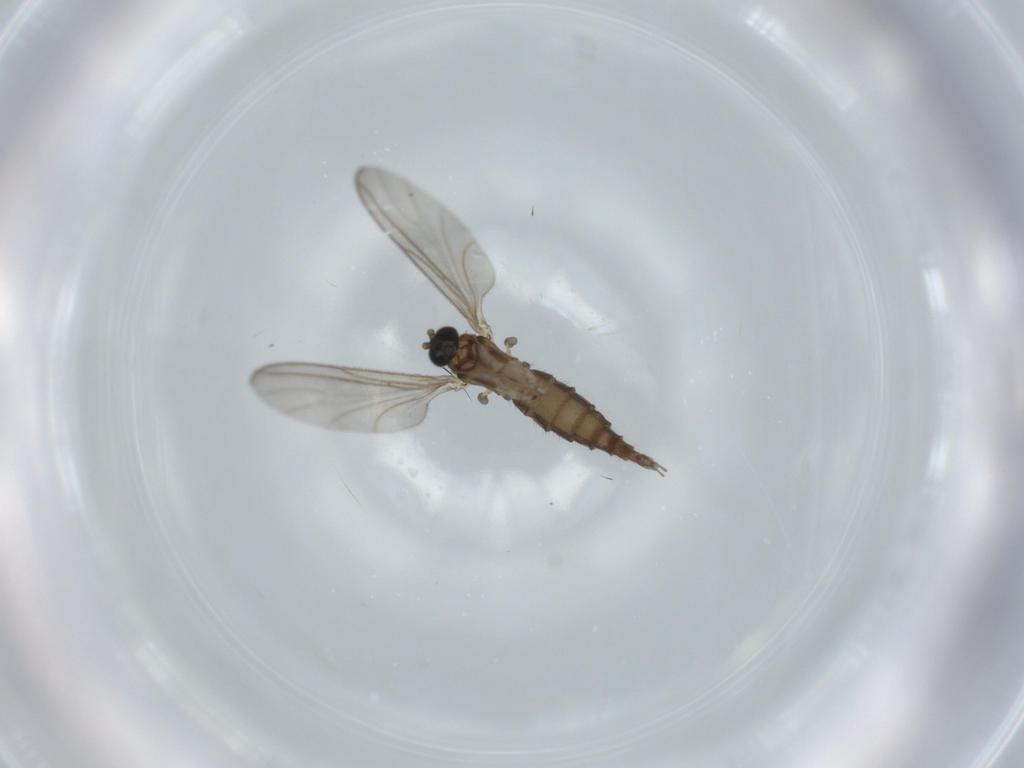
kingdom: Animalia
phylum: Arthropoda
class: Insecta
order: Diptera
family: Sciaridae
